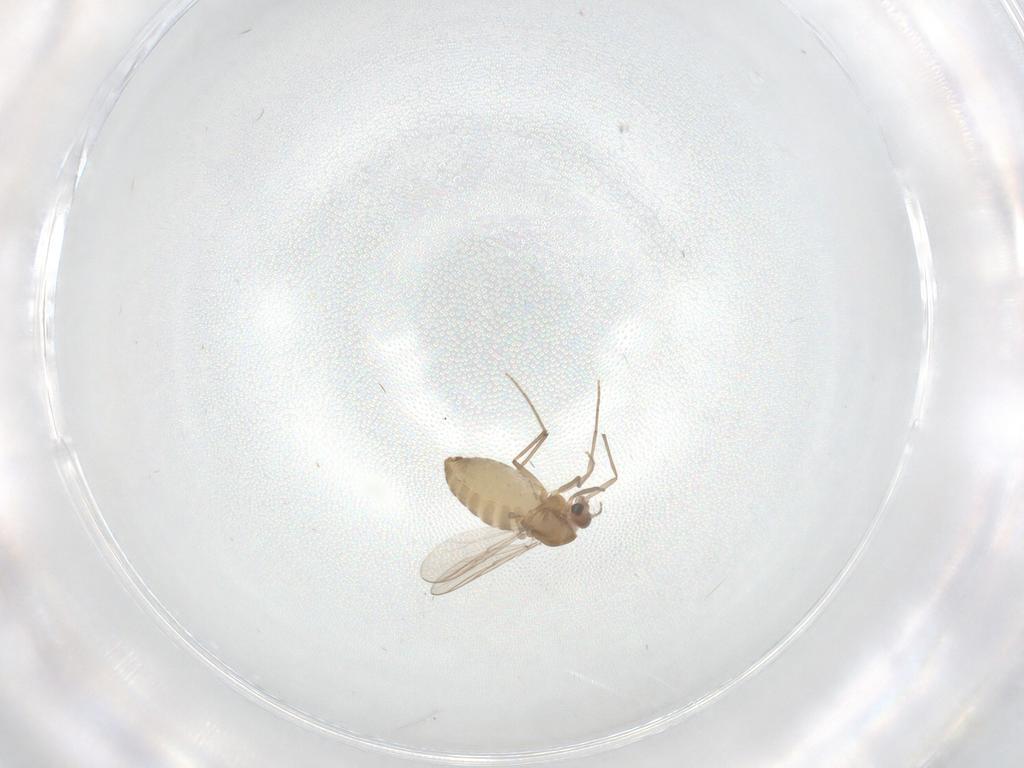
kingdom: Animalia
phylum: Arthropoda
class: Insecta
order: Diptera
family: Chironomidae
